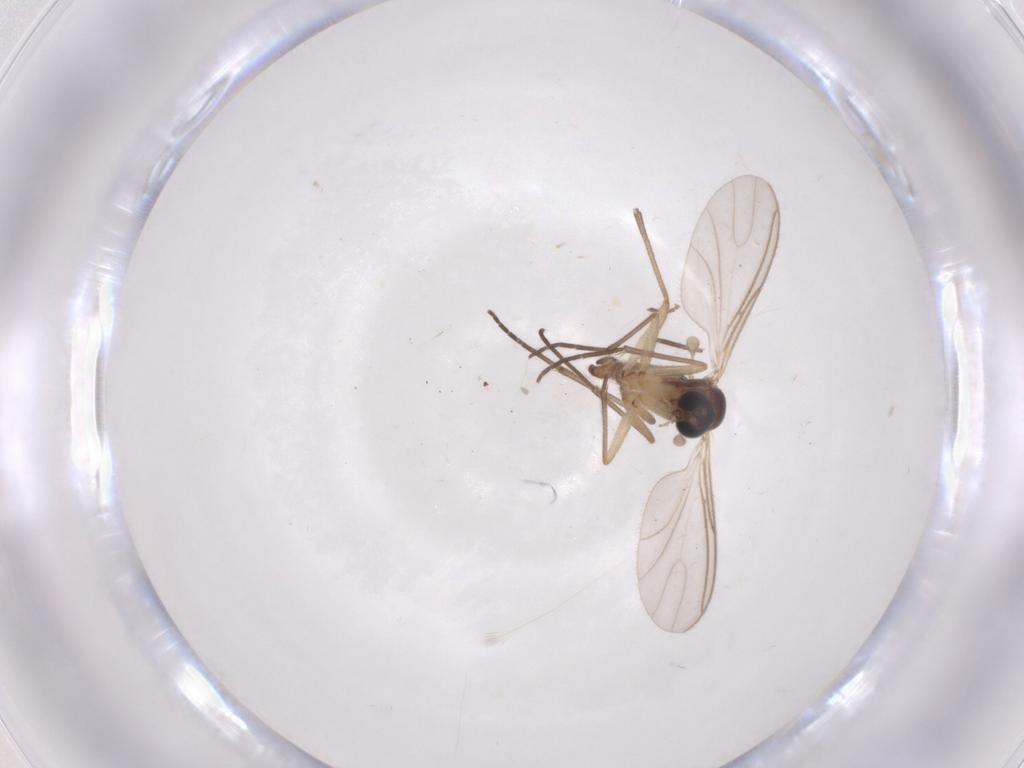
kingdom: Animalia
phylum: Arthropoda
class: Insecta
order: Diptera
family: Sciaridae
